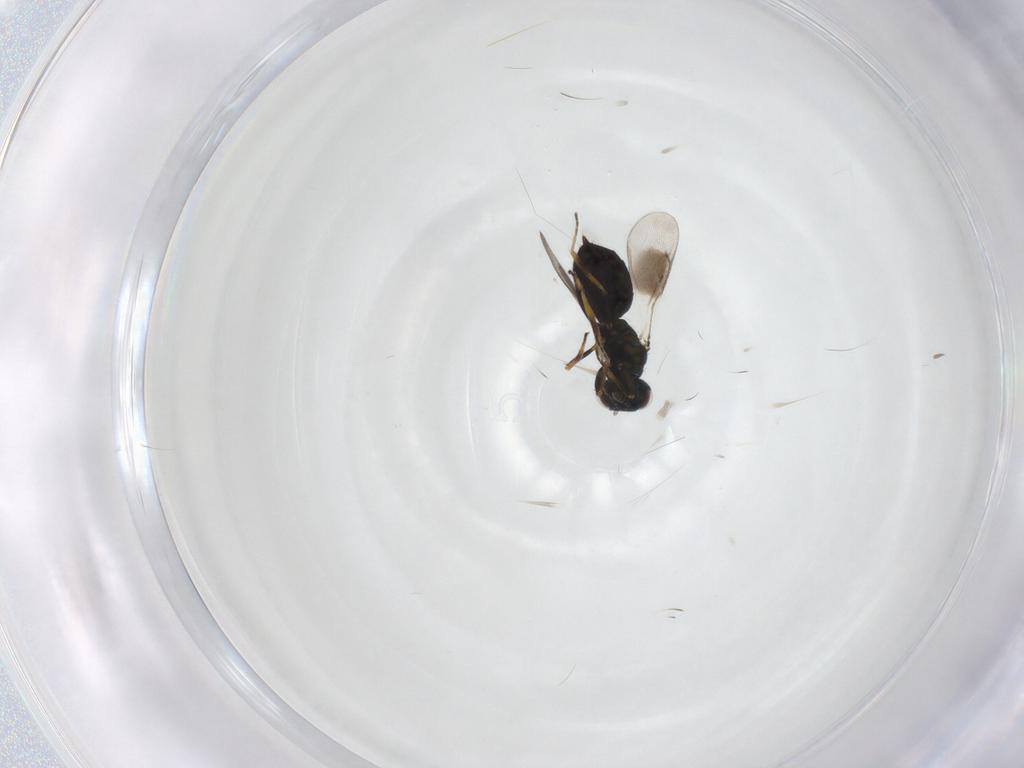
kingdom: Animalia
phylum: Arthropoda
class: Insecta
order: Hymenoptera
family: Eulophidae
